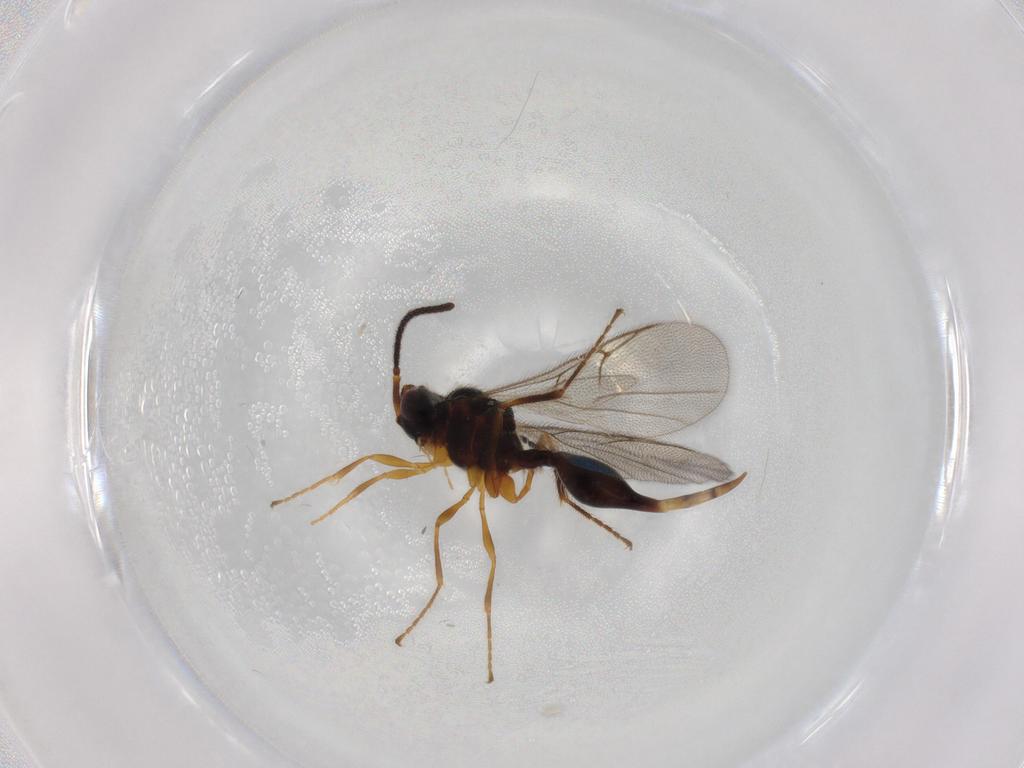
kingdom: Animalia
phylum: Arthropoda
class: Insecta
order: Hymenoptera
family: Diapriidae
